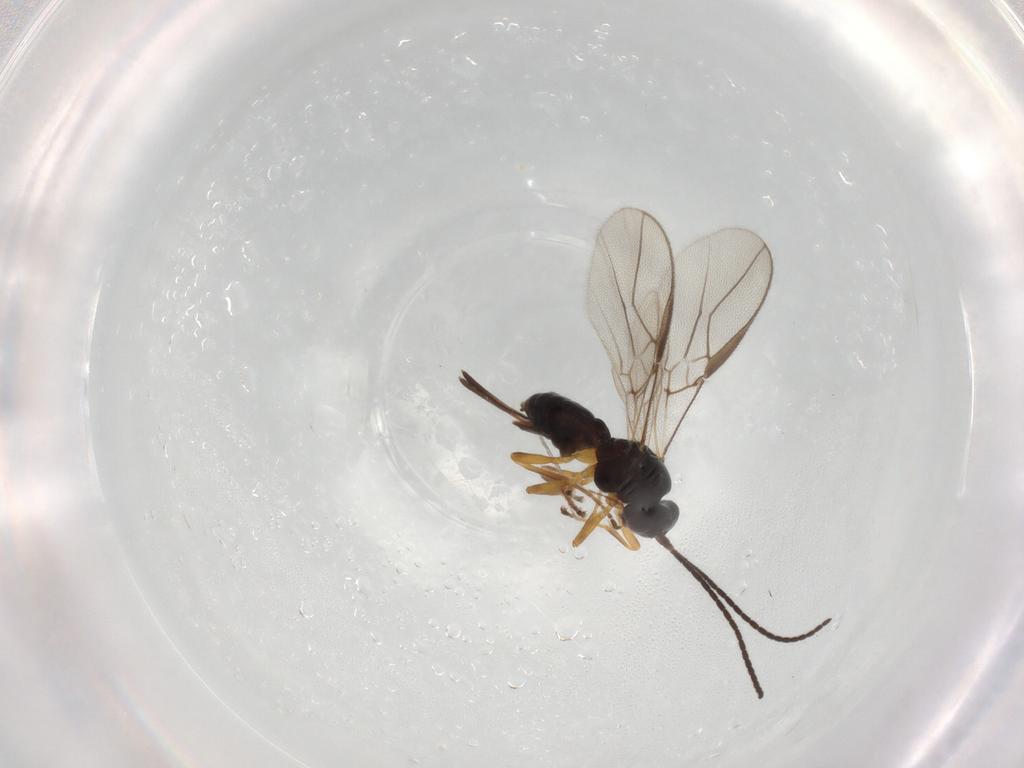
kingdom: Animalia
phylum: Arthropoda
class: Insecta
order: Hymenoptera
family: Braconidae
